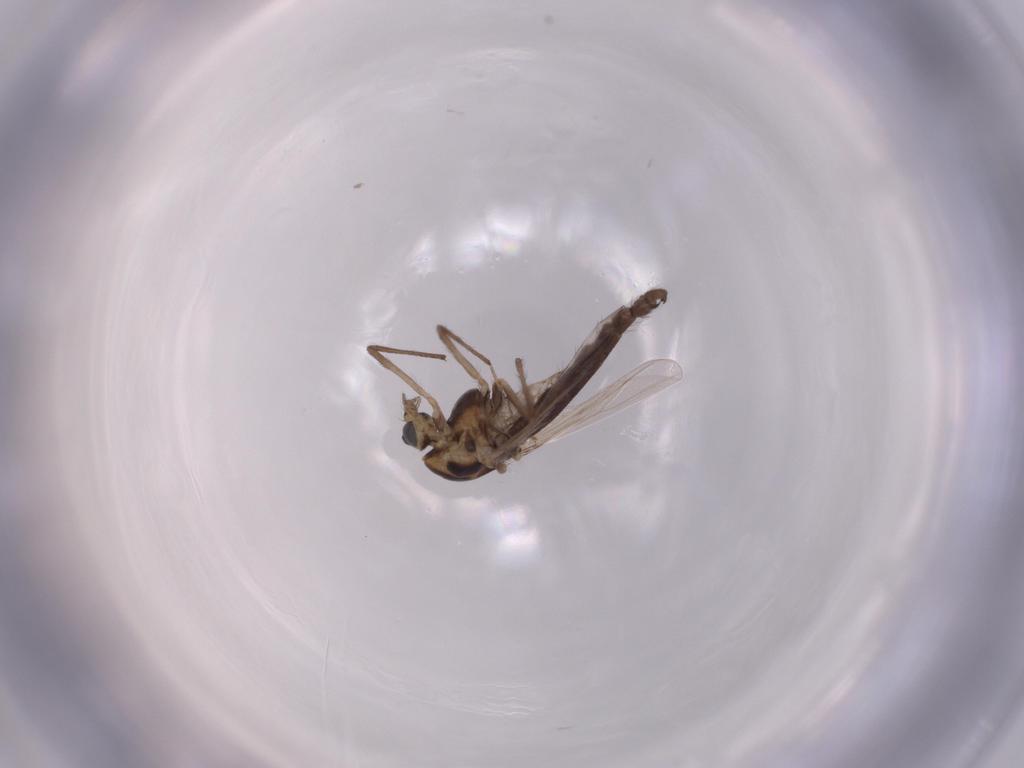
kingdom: Animalia
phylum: Arthropoda
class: Insecta
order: Diptera
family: Chironomidae
